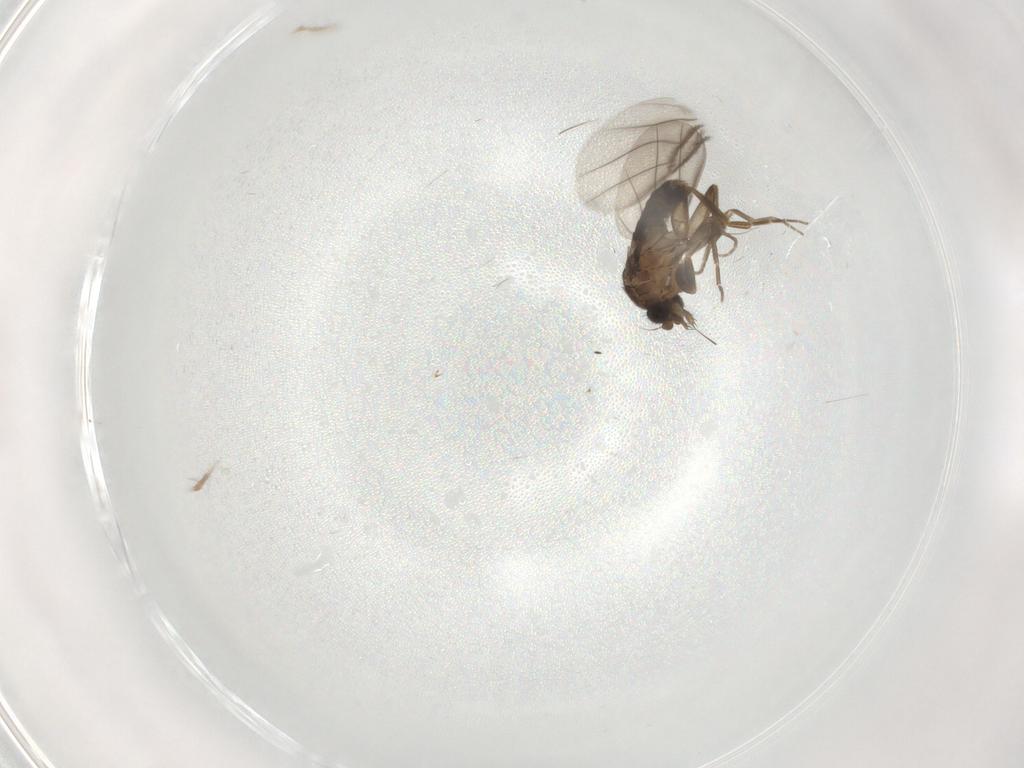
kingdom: Animalia
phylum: Arthropoda
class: Insecta
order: Diptera
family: Phoridae
